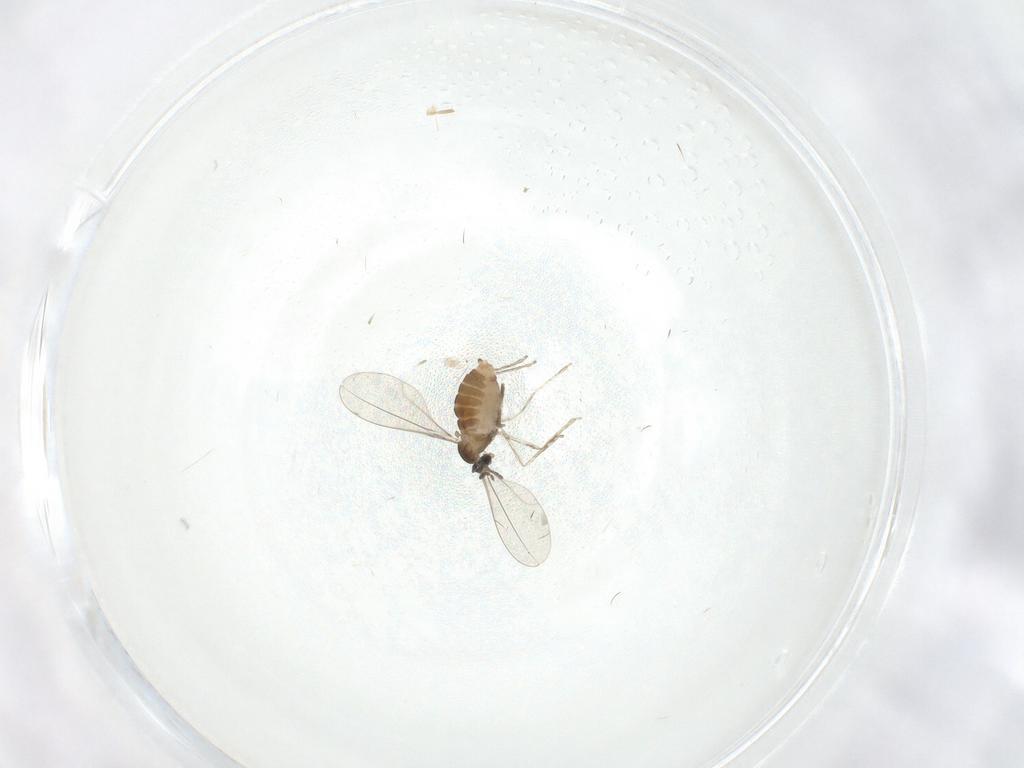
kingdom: Animalia
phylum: Arthropoda
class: Insecta
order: Diptera
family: Cecidomyiidae
